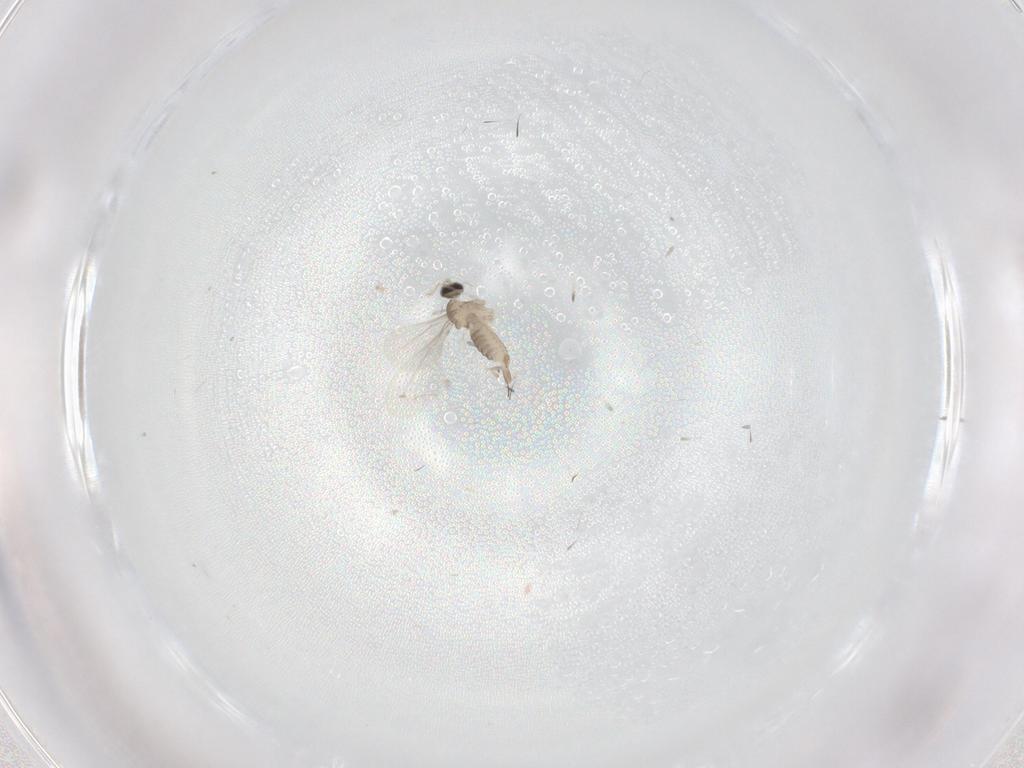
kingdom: Animalia
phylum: Arthropoda
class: Insecta
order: Diptera
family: Cecidomyiidae
